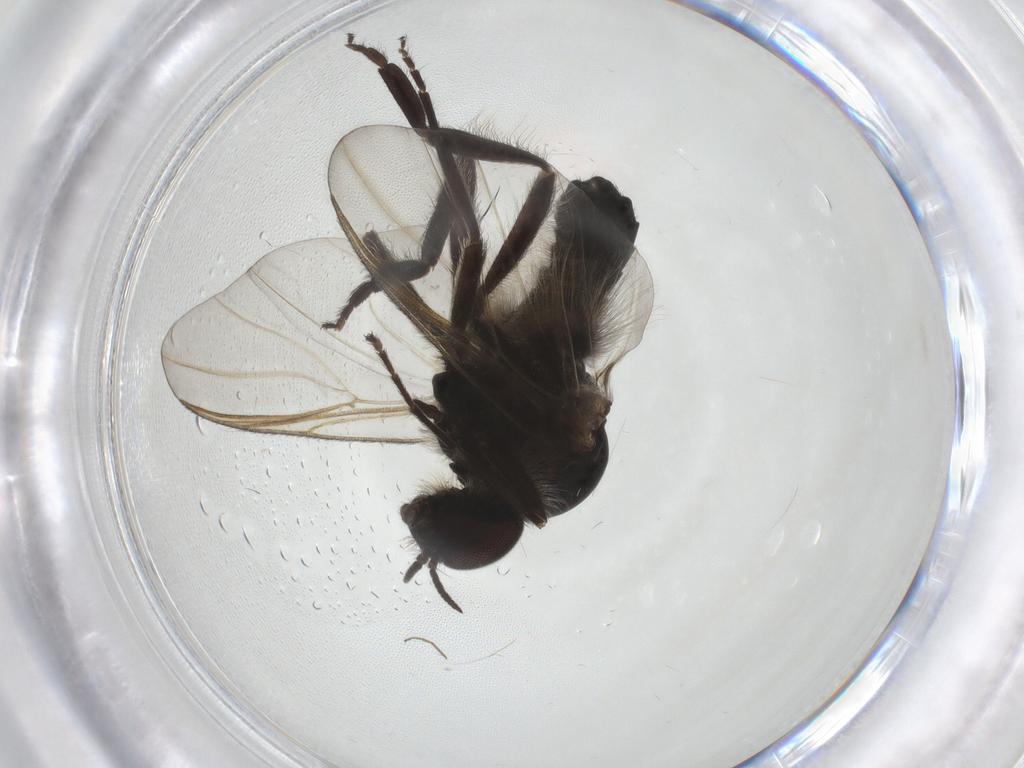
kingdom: Animalia
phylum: Arthropoda
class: Insecta
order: Diptera
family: Simuliidae
